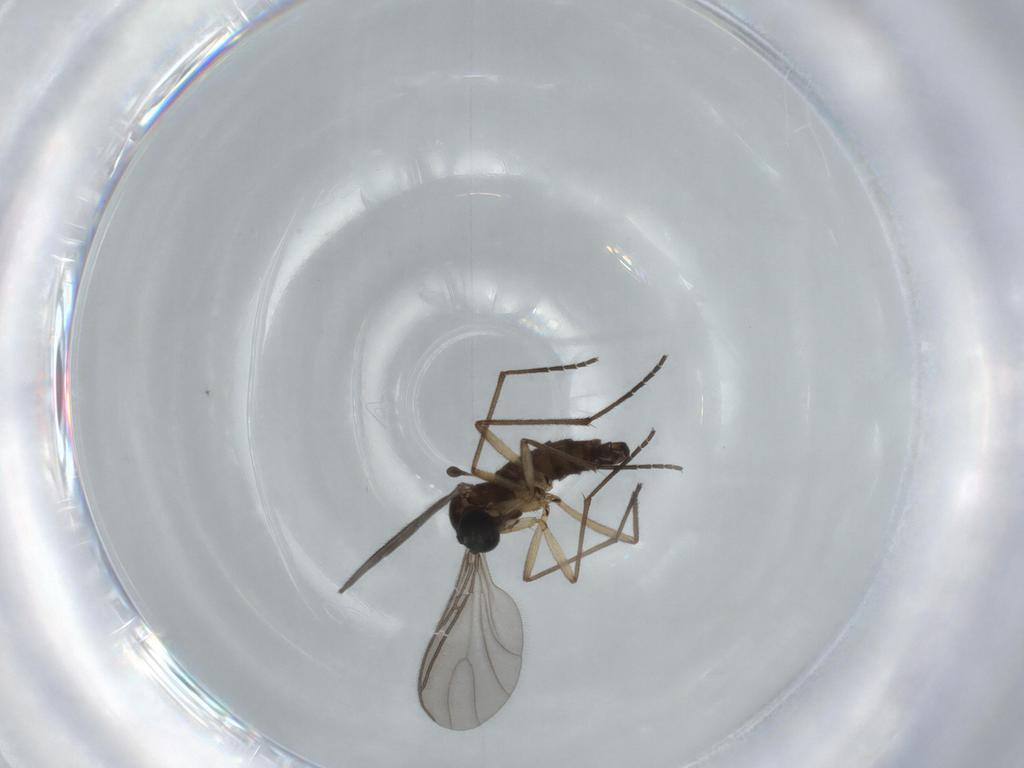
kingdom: Animalia
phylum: Arthropoda
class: Insecta
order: Diptera
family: Sciaridae
